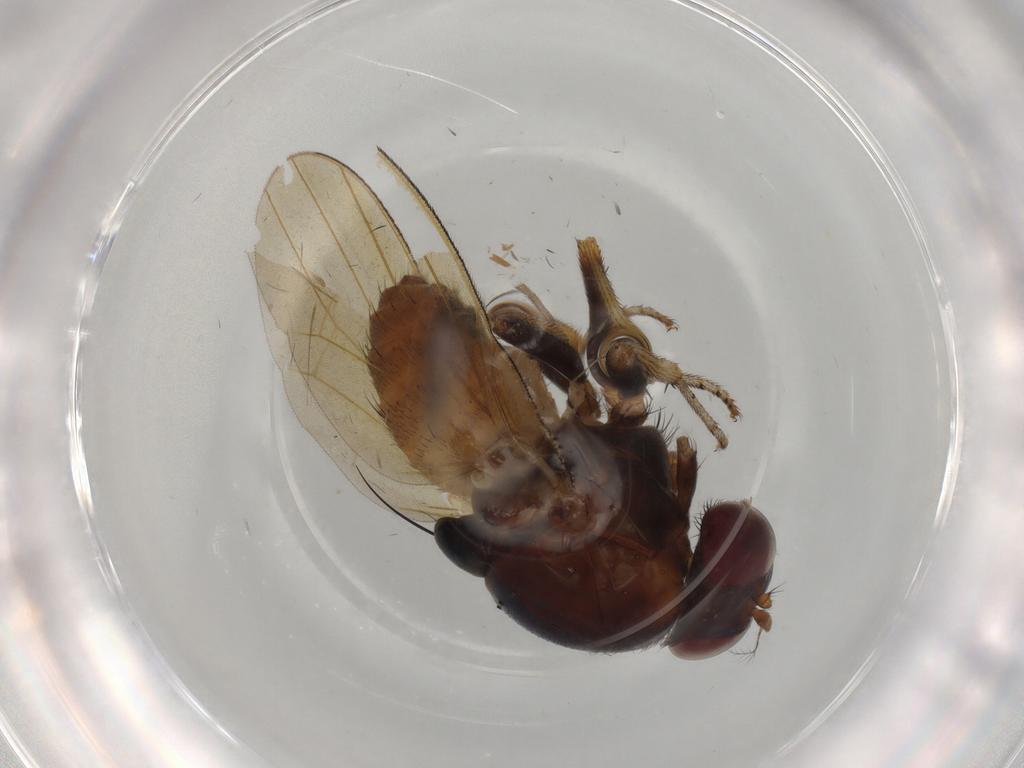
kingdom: Animalia
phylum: Arthropoda
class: Insecta
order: Diptera
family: Lauxaniidae
